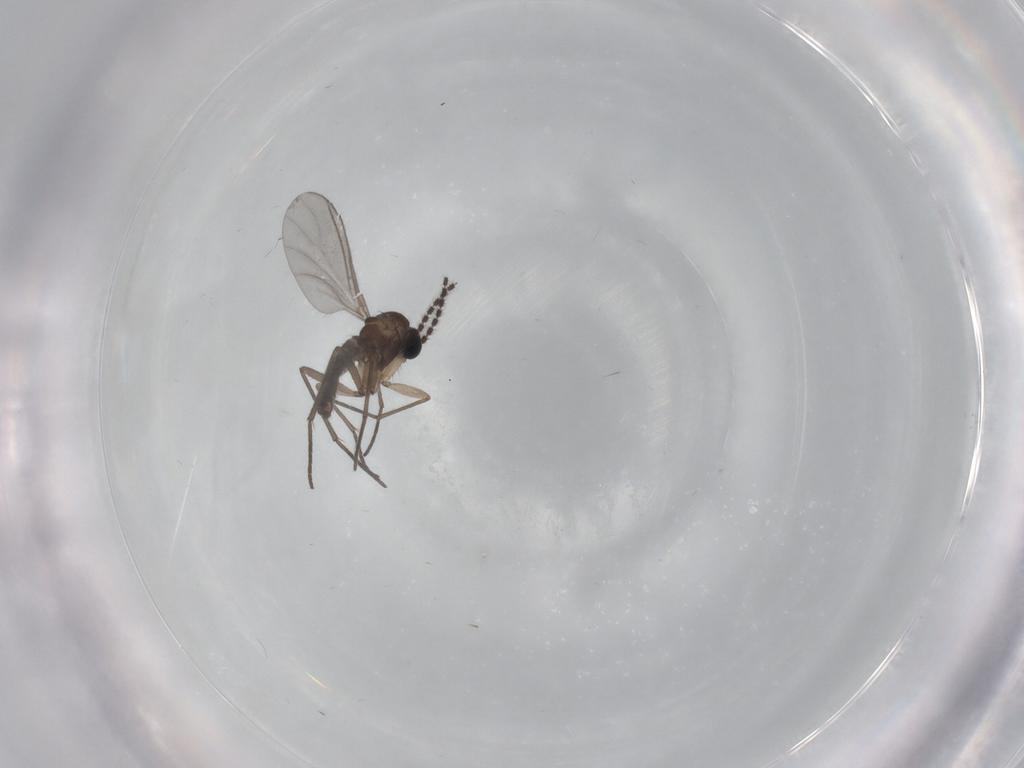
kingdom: Animalia
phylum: Arthropoda
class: Insecta
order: Diptera
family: Sciaridae
